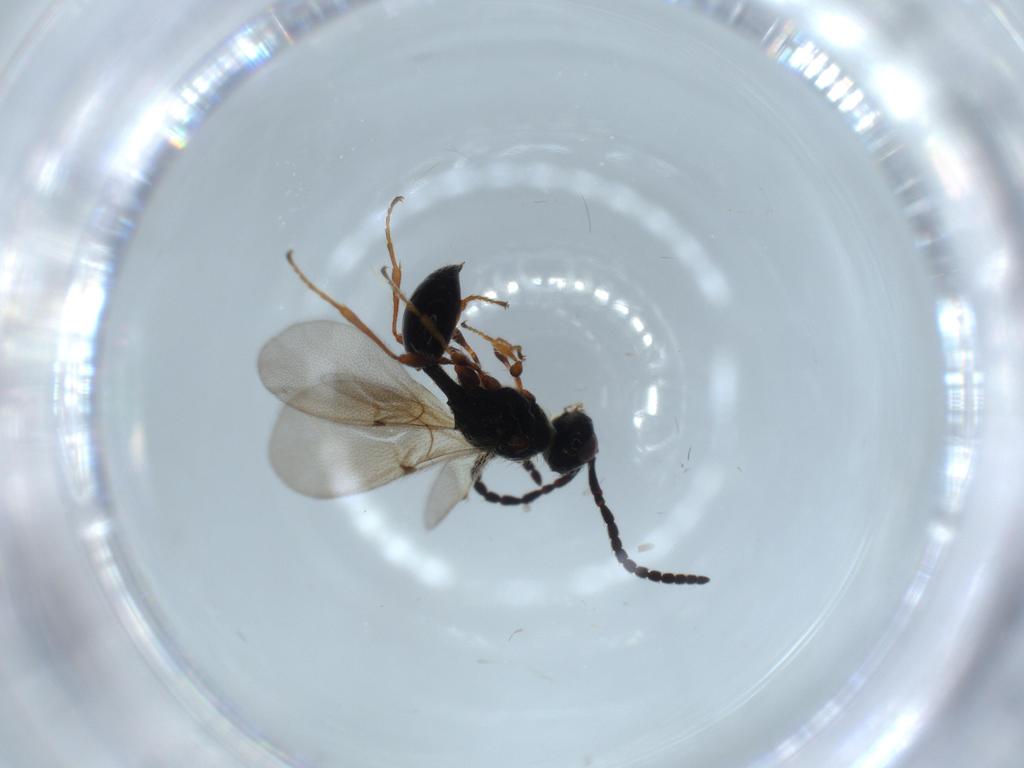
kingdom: Animalia
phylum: Arthropoda
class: Insecta
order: Hymenoptera
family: Diapriidae
